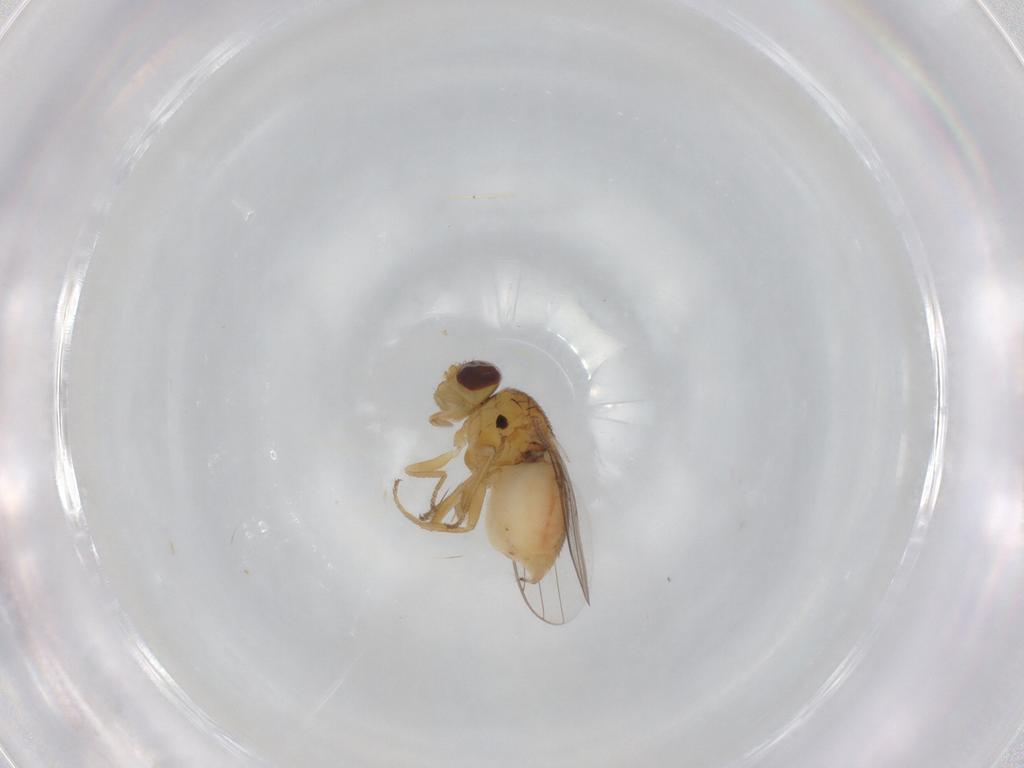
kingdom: Animalia
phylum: Arthropoda
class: Insecta
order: Diptera
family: Chloropidae
